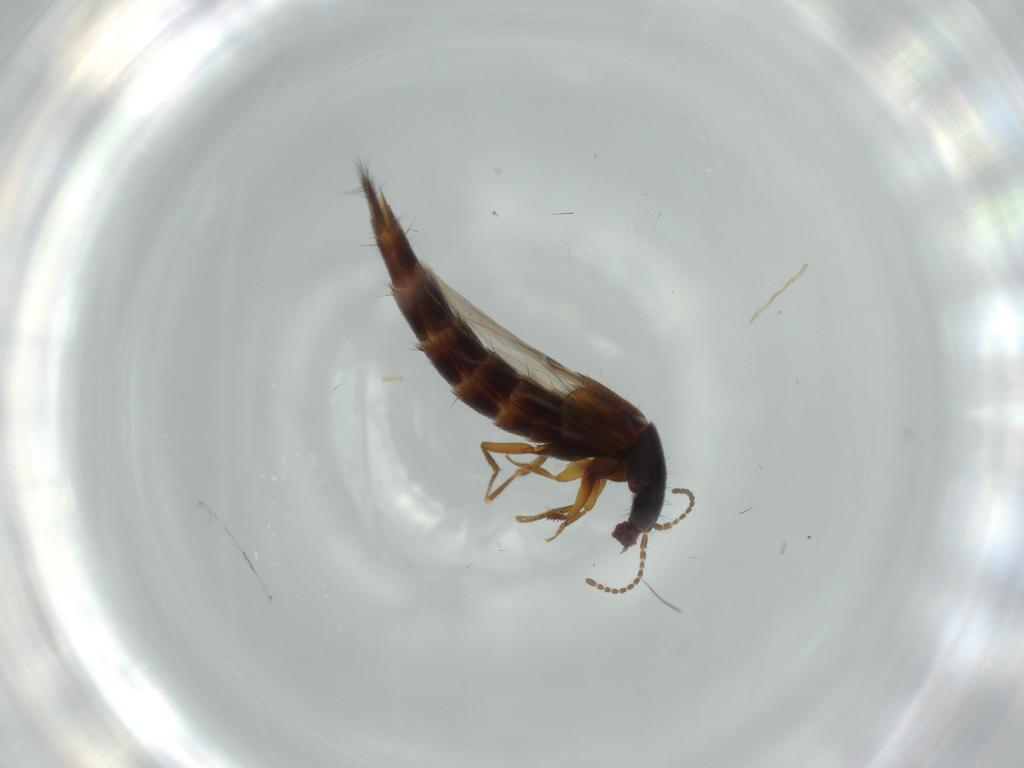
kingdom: Animalia
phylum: Arthropoda
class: Insecta
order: Coleoptera
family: Staphylinidae
